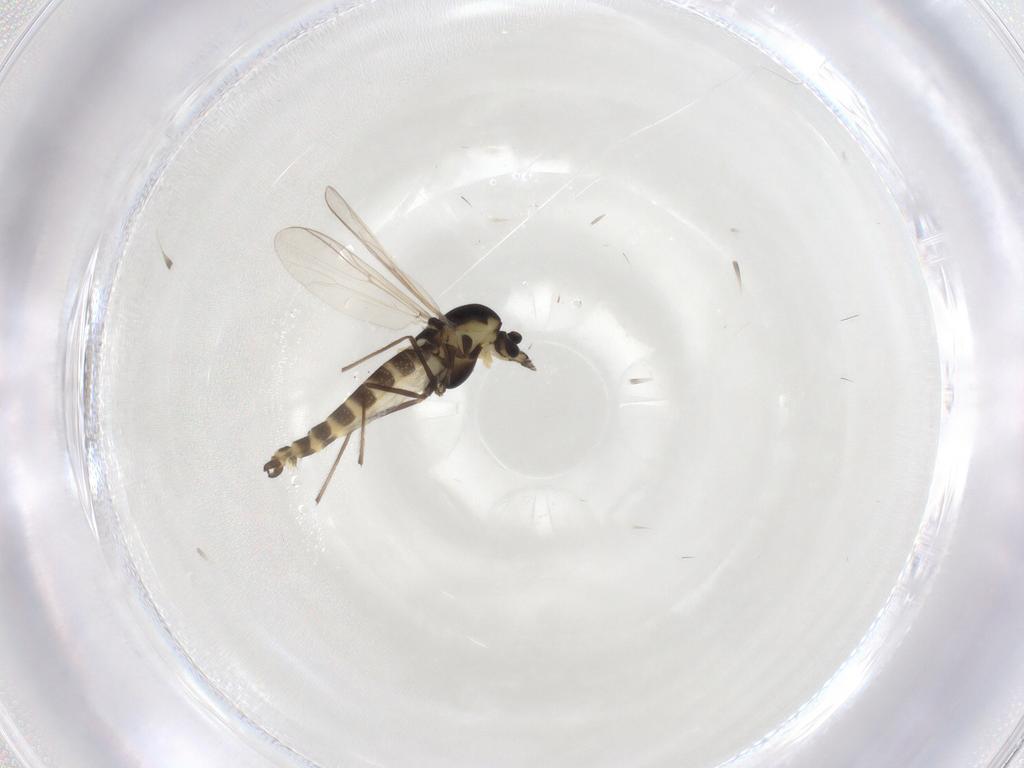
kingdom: Animalia
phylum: Arthropoda
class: Insecta
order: Diptera
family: Chironomidae
